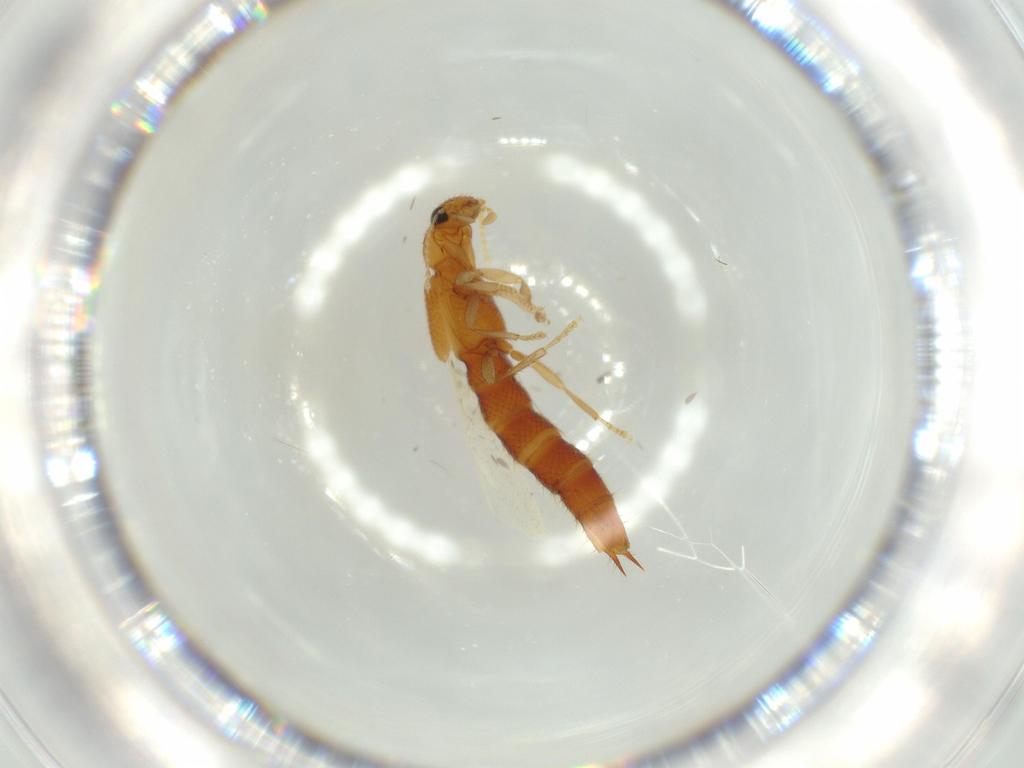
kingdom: Animalia
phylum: Arthropoda
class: Insecta
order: Coleoptera
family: Staphylinidae
